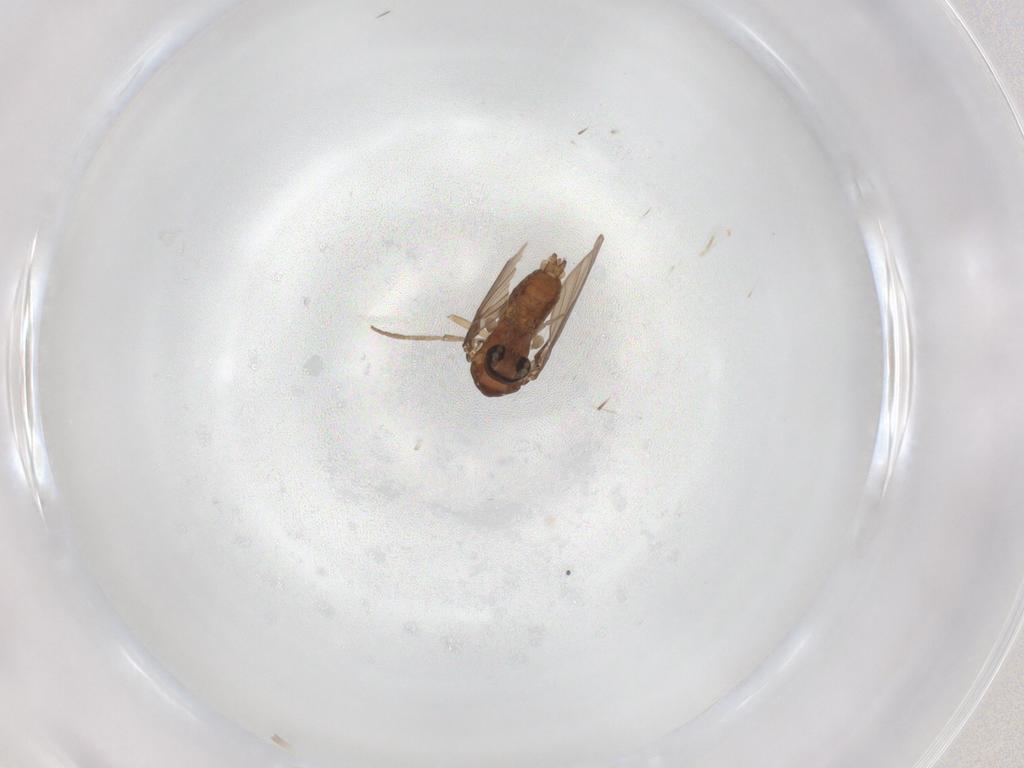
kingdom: Animalia
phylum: Arthropoda
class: Insecta
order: Diptera
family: Psychodidae
